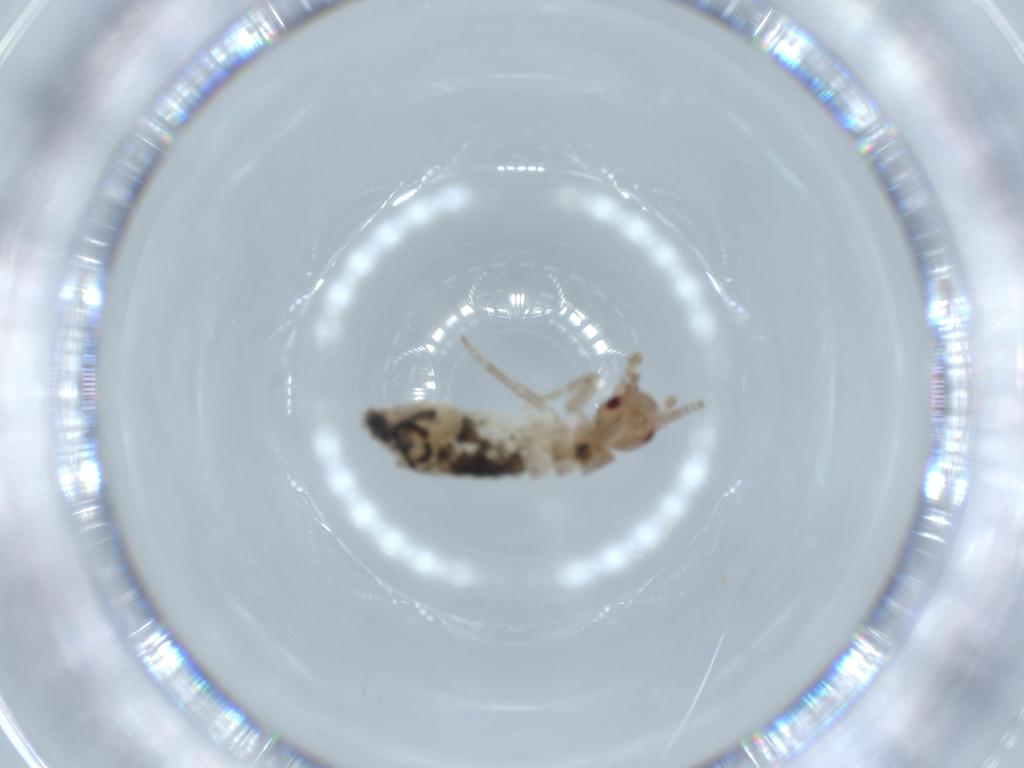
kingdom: Animalia
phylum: Arthropoda
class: Insecta
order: Orthoptera
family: Mogoplistidae
